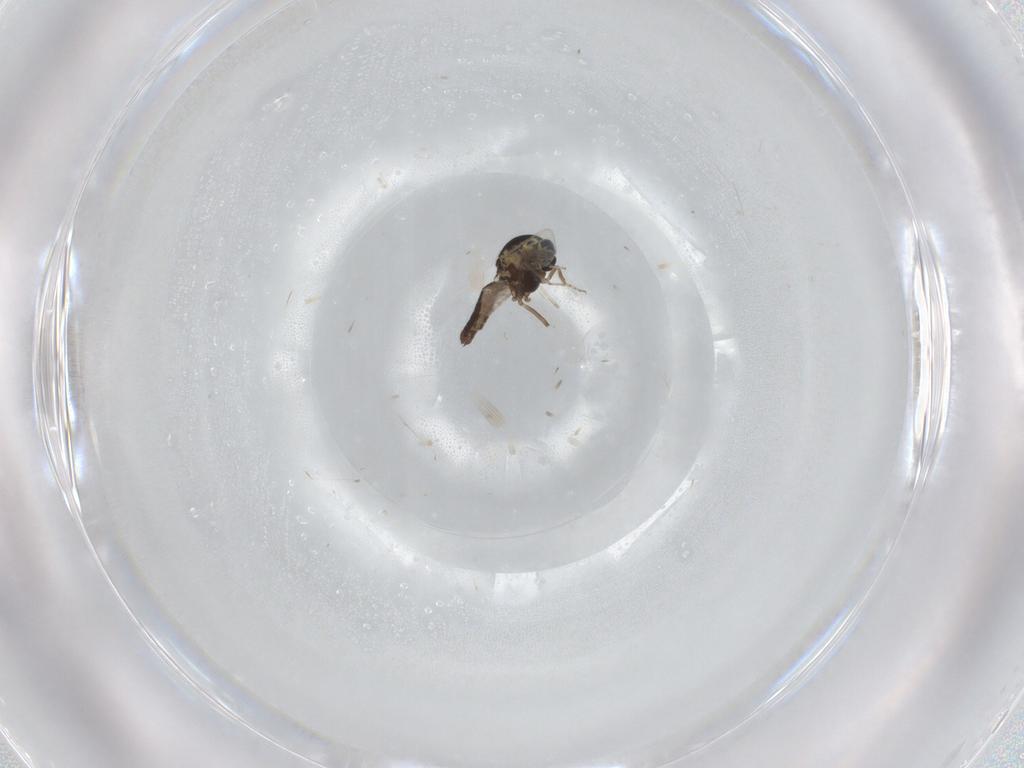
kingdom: Animalia
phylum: Arthropoda
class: Insecta
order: Diptera
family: Ceratopogonidae
